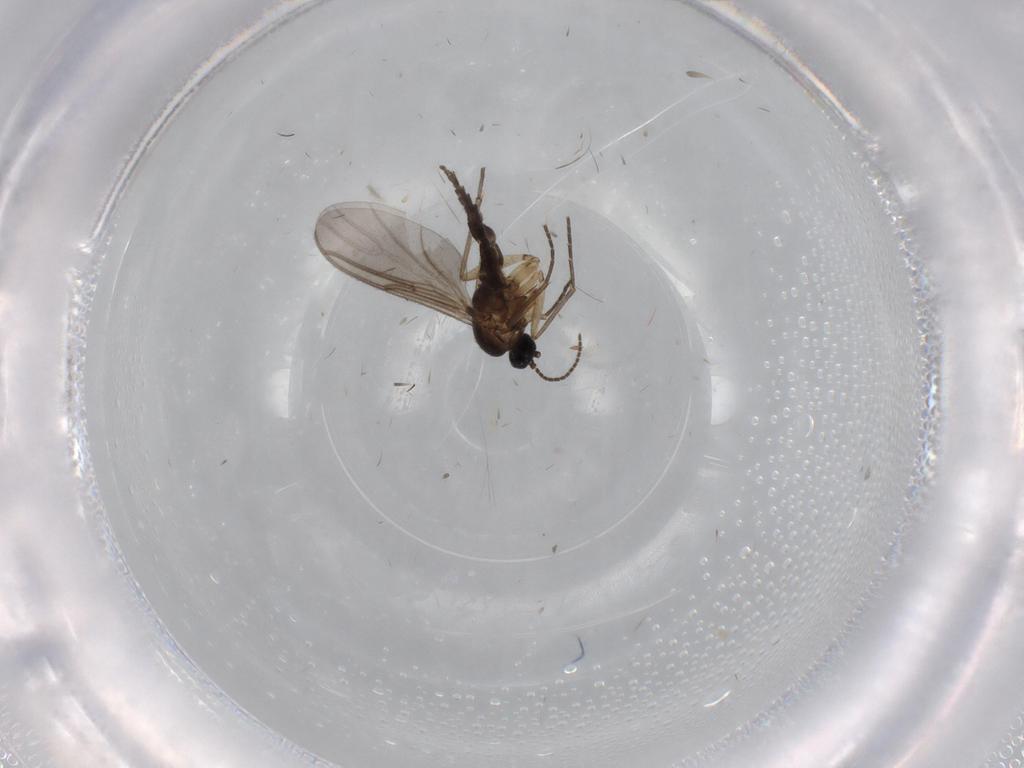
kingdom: Animalia
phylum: Arthropoda
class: Insecta
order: Diptera
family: Sciaridae
